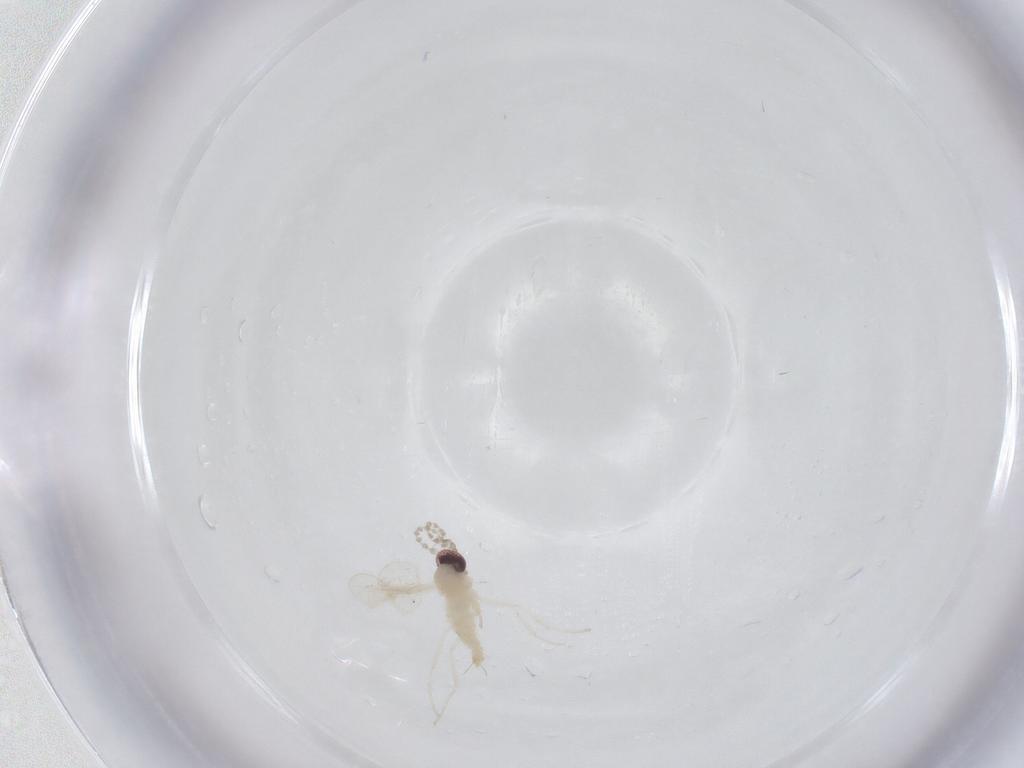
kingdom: Animalia
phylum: Arthropoda
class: Insecta
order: Diptera
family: Cecidomyiidae
